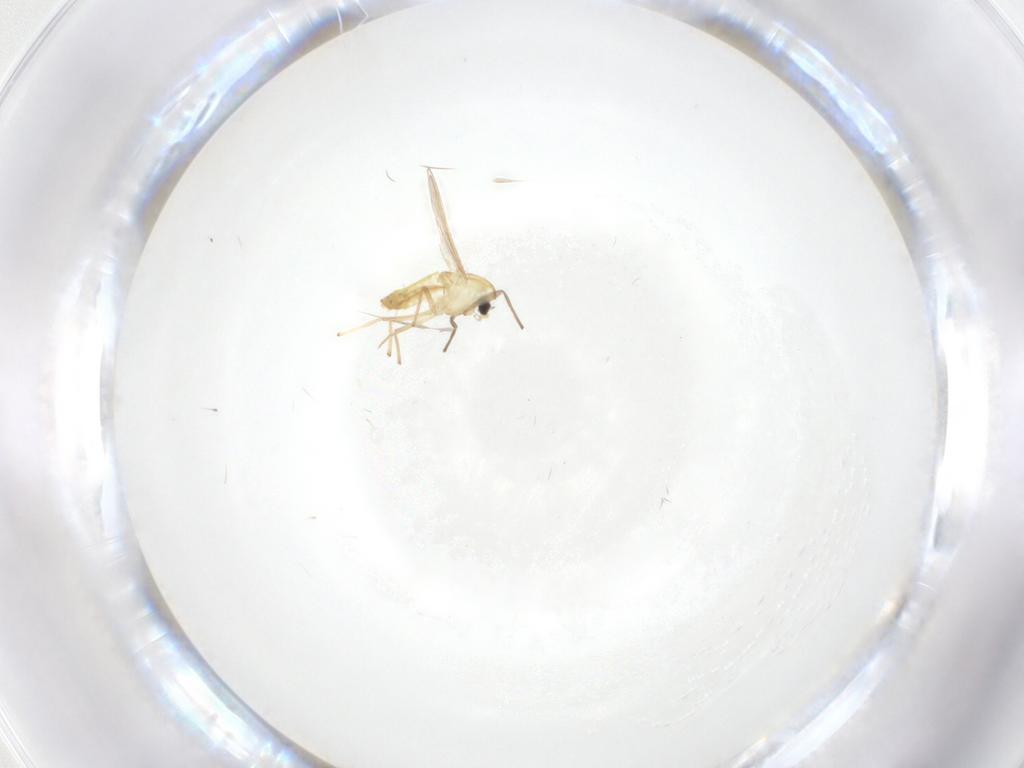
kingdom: Animalia
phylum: Arthropoda
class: Insecta
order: Diptera
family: Chironomidae
